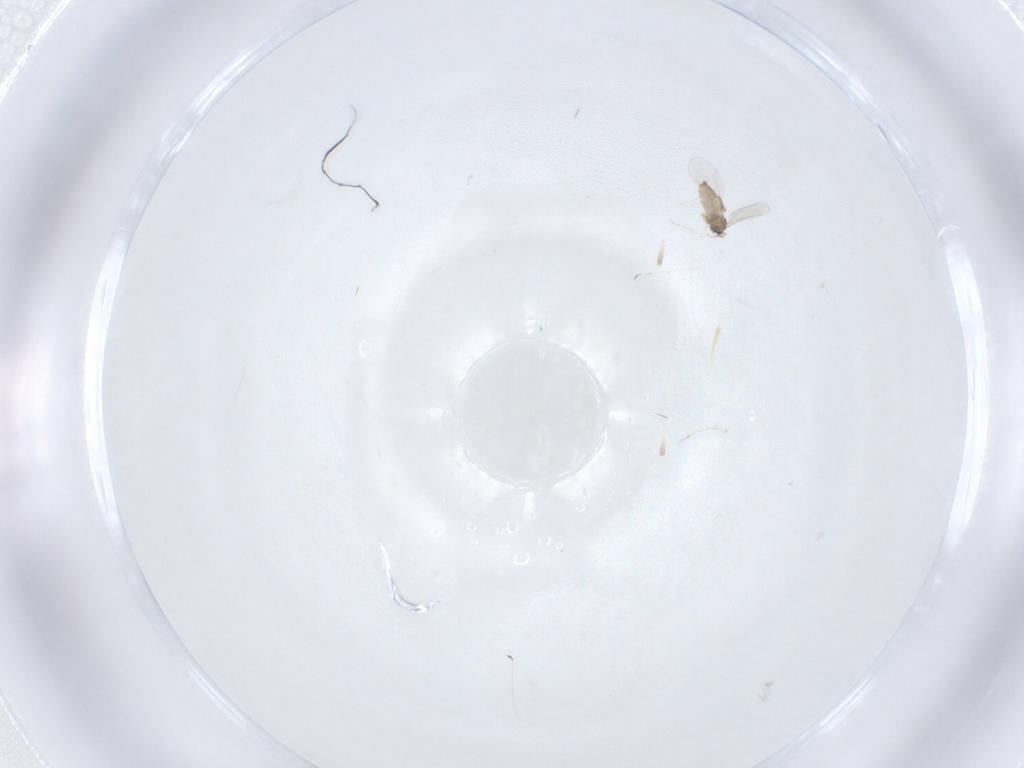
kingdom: Animalia
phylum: Arthropoda
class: Insecta
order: Diptera
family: Cecidomyiidae
